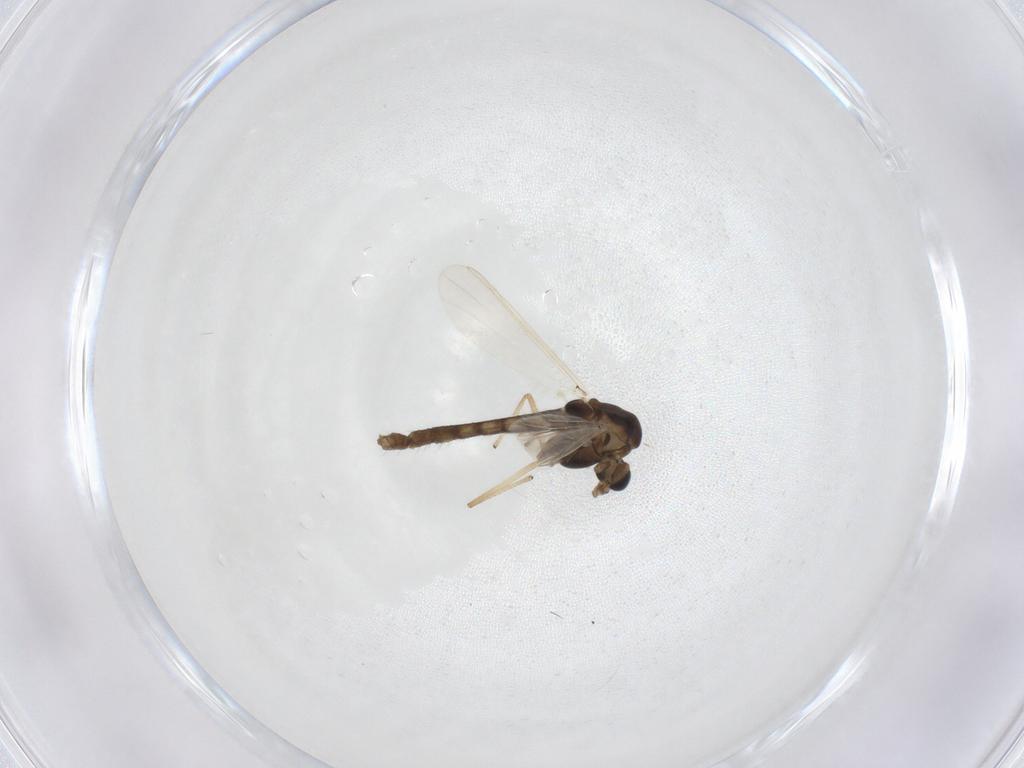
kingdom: Animalia
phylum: Arthropoda
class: Insecta
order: Diptera
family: Chironomidae
